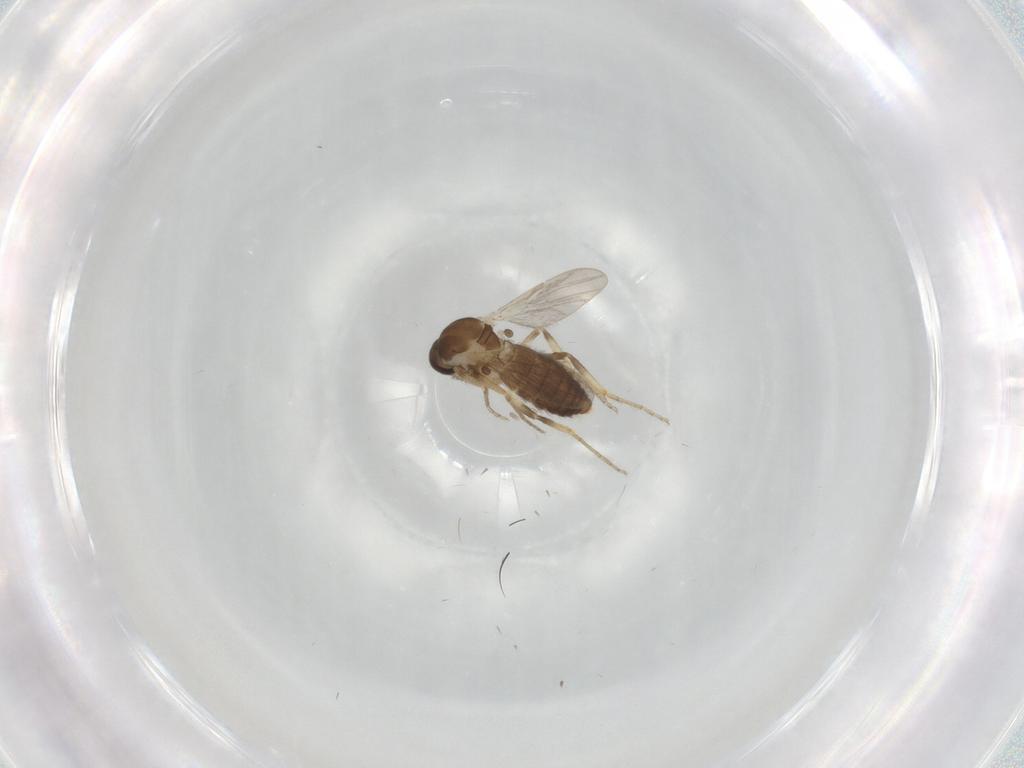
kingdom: Animalia
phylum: Arthropoda
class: Insecta
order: Diptera
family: Ceratopogonidae
